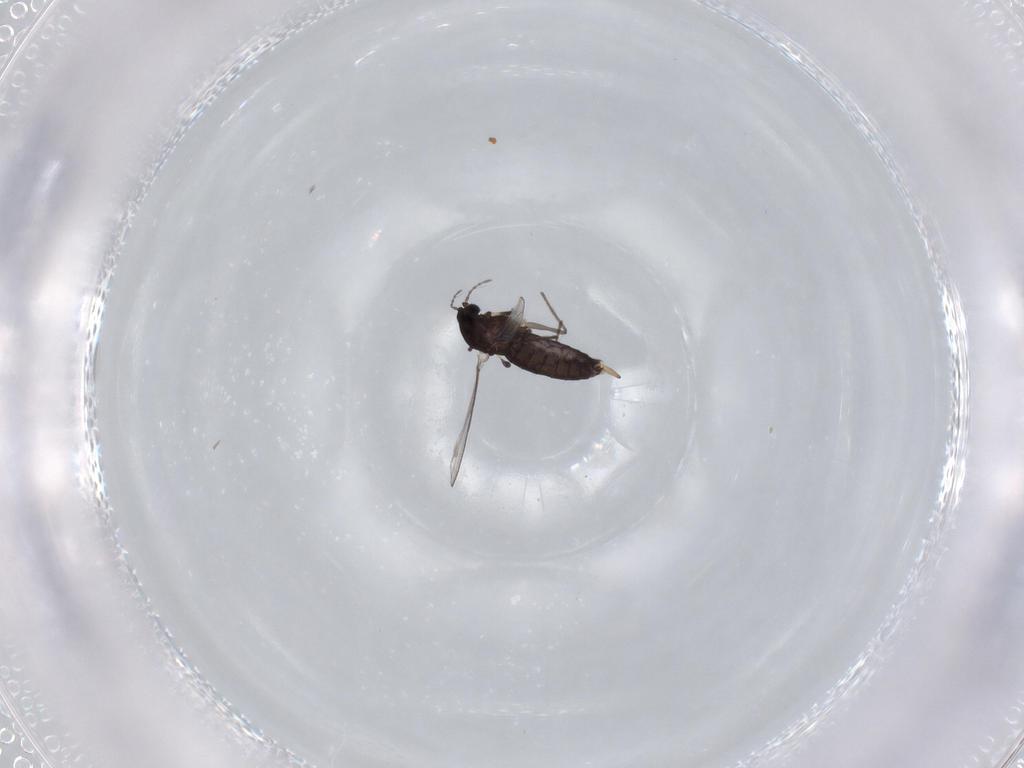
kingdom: Animalia
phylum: Arthropoda
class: Insecta
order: Diptera
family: Chironomidae
